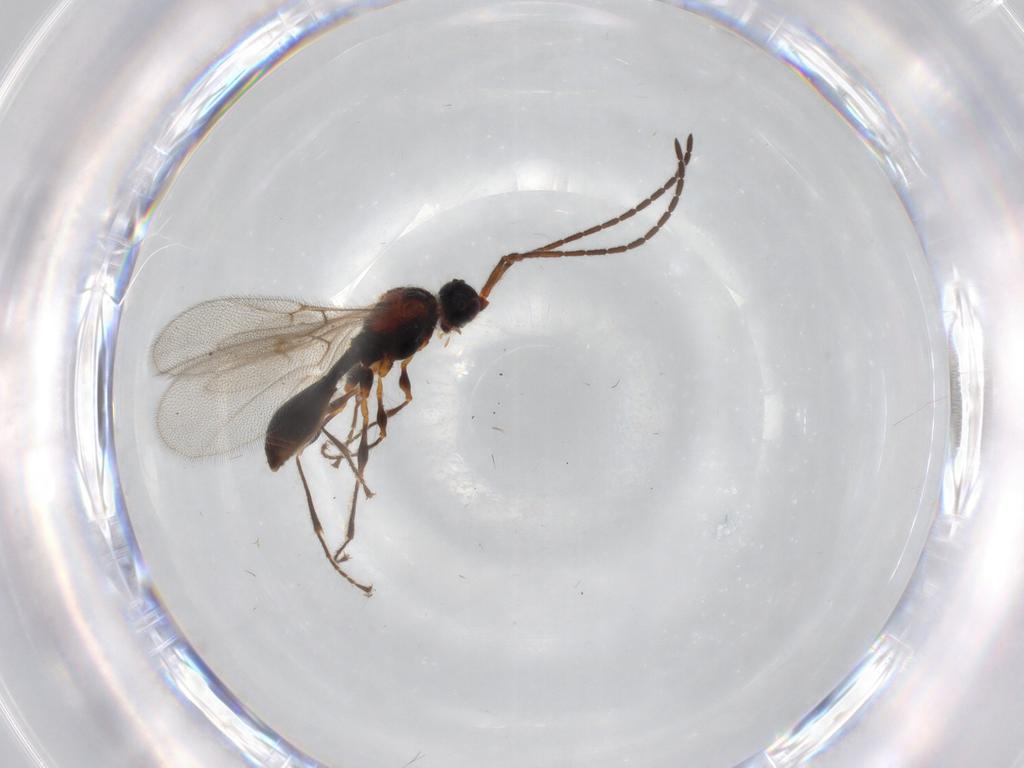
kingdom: Animalia
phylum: Arthropoda
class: Insecta
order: Hymenoptera
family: Diapriidae
